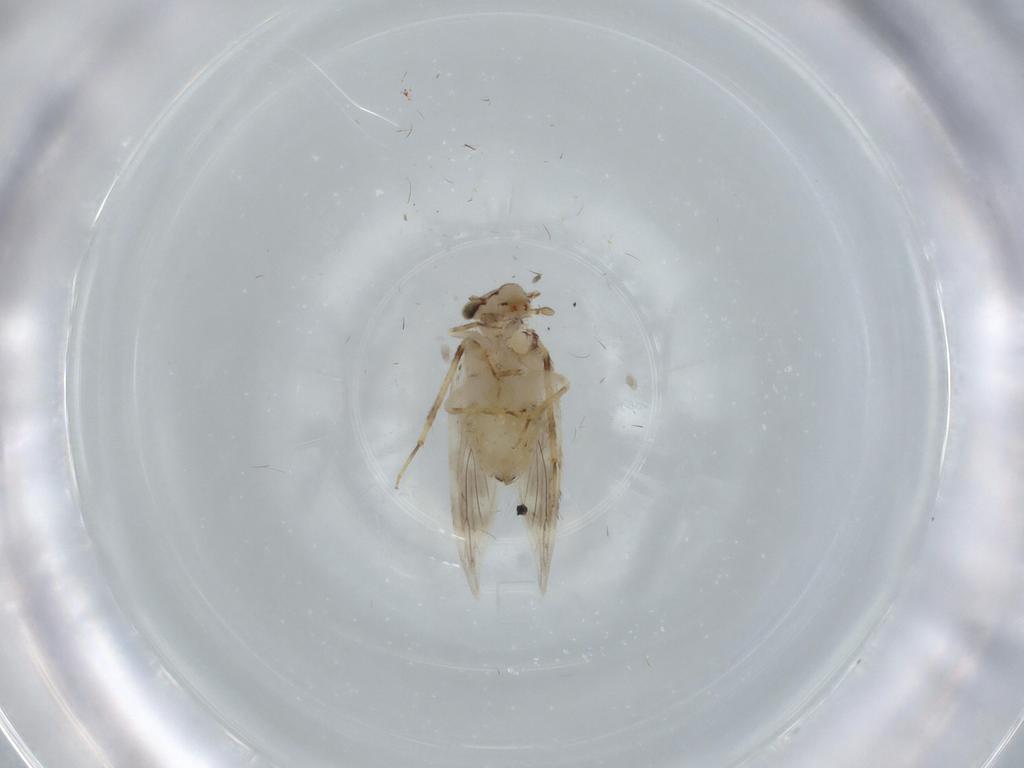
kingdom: Animalia
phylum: Arthropoda
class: Insecta
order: Psocodea
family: Lepidopsocidae
